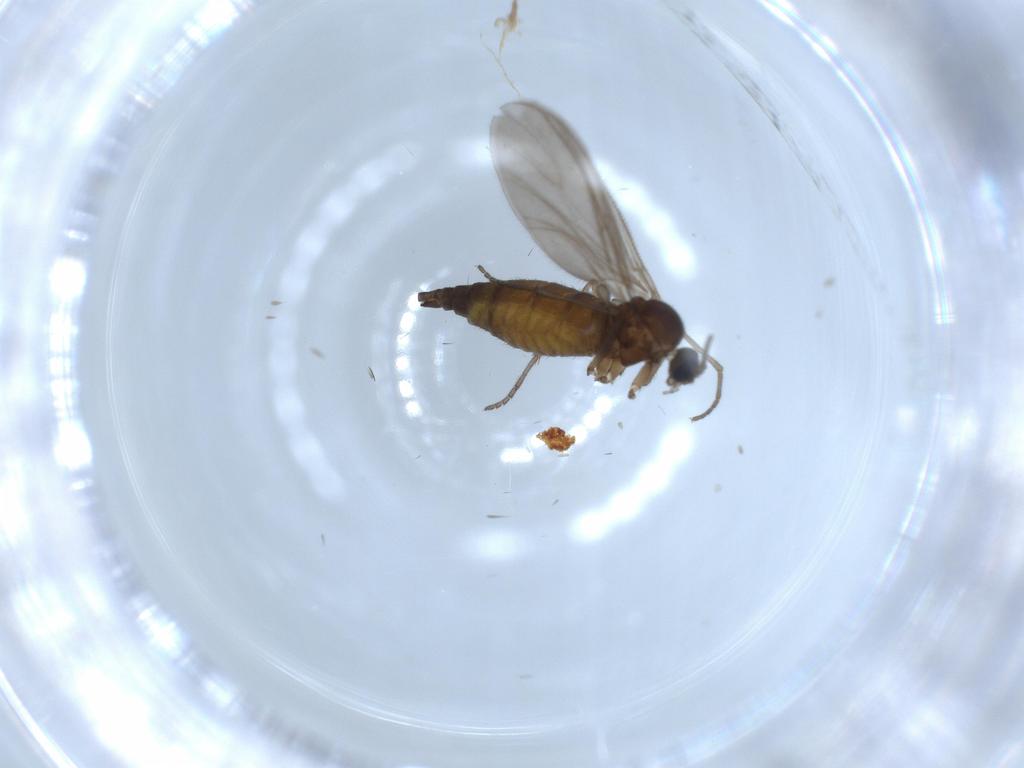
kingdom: Animalia
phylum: Arthropoda
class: Insecta
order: Diptera
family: Sciaridae
